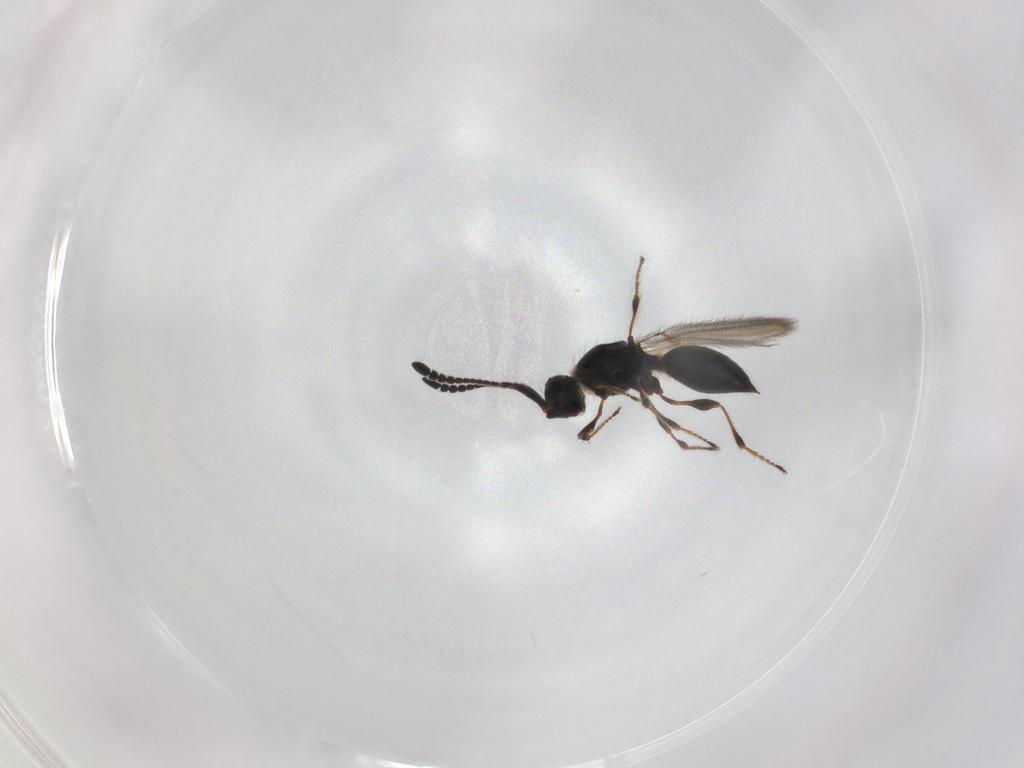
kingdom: Animalia
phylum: Arthropoda
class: Insecta
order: Hymenoptera
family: Diapriidae
